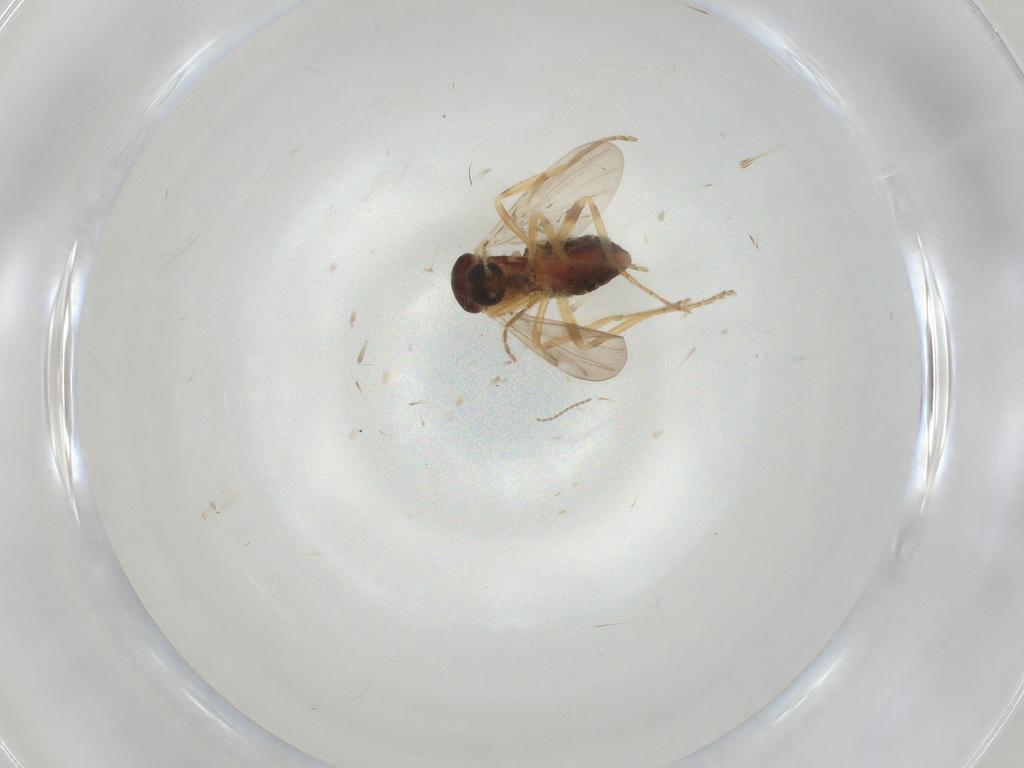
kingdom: Animalia
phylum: Arthropoda
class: Insecta
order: Diptera
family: Ceratopogonidae
